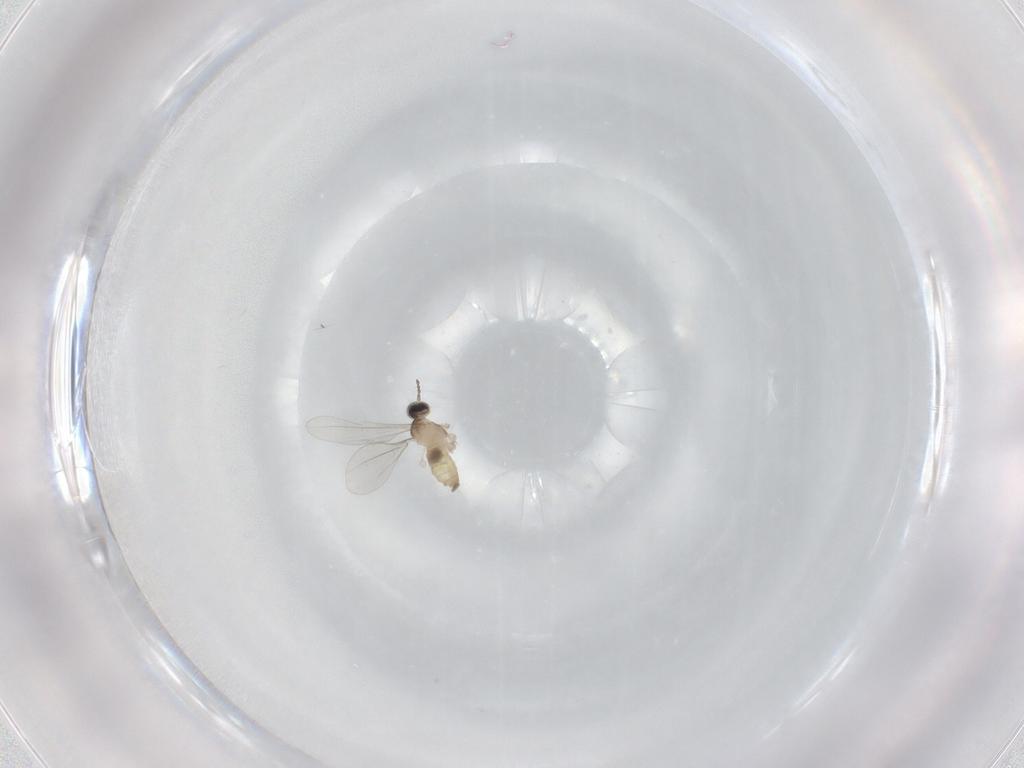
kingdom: Animalia
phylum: Arthropoda
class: Insecta
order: Diptera
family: Cecidomyiidae
